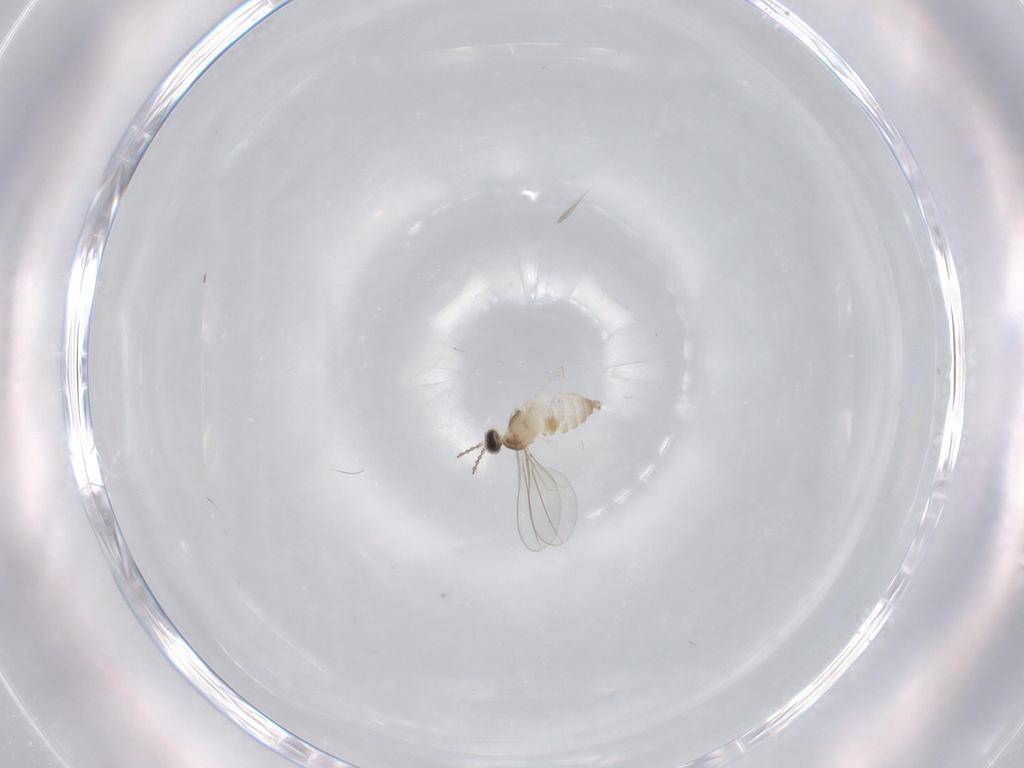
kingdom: Animalia
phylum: Arthropoda
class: Insecta
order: Diptera
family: Cecidomyiidae
